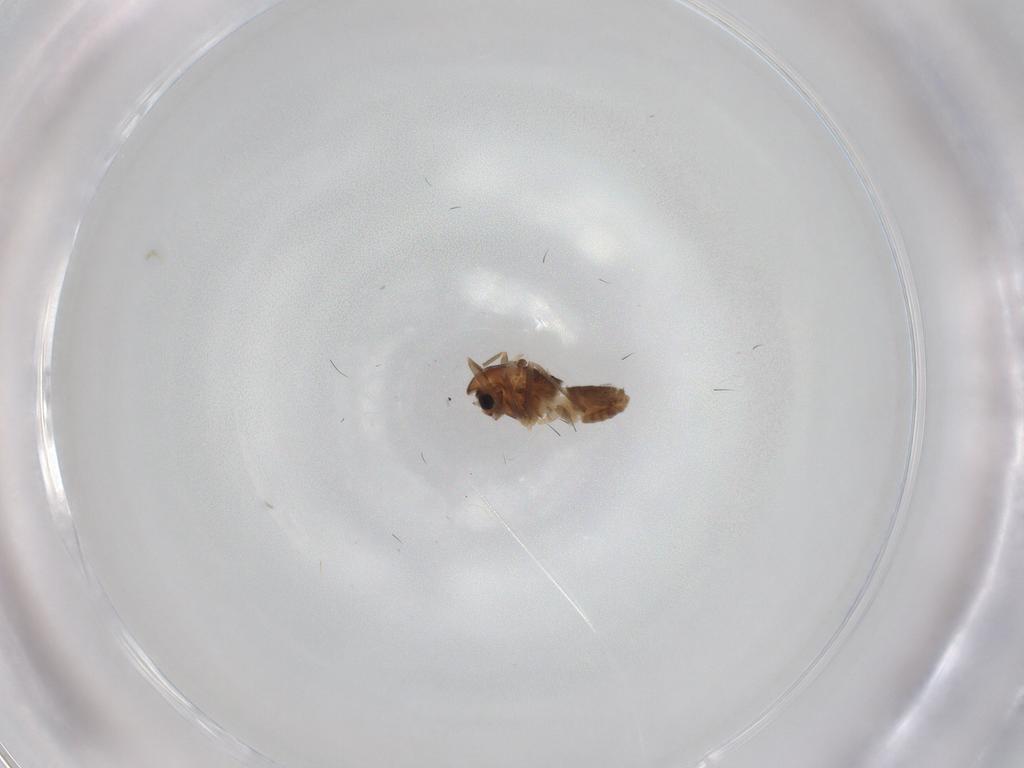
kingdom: Animalia
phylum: Arthropoda
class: Insecta
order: Diptera
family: Chironomidae
